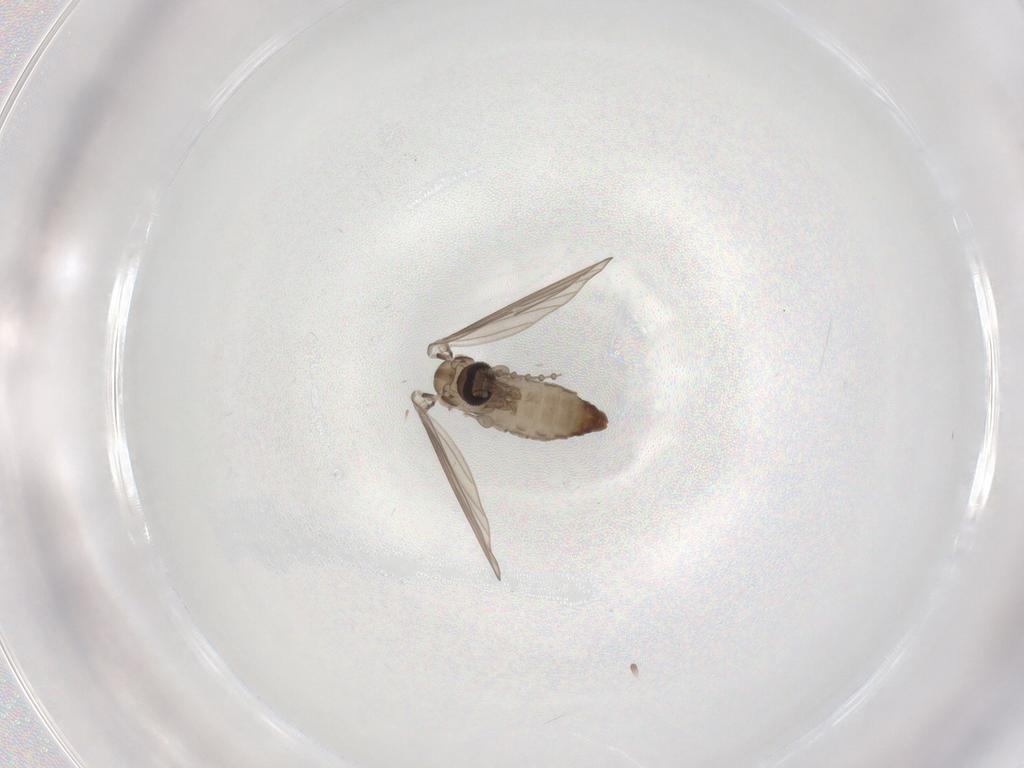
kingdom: Animalia
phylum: Arthropoda
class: Insecta
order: Diptera
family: Psychodidae
